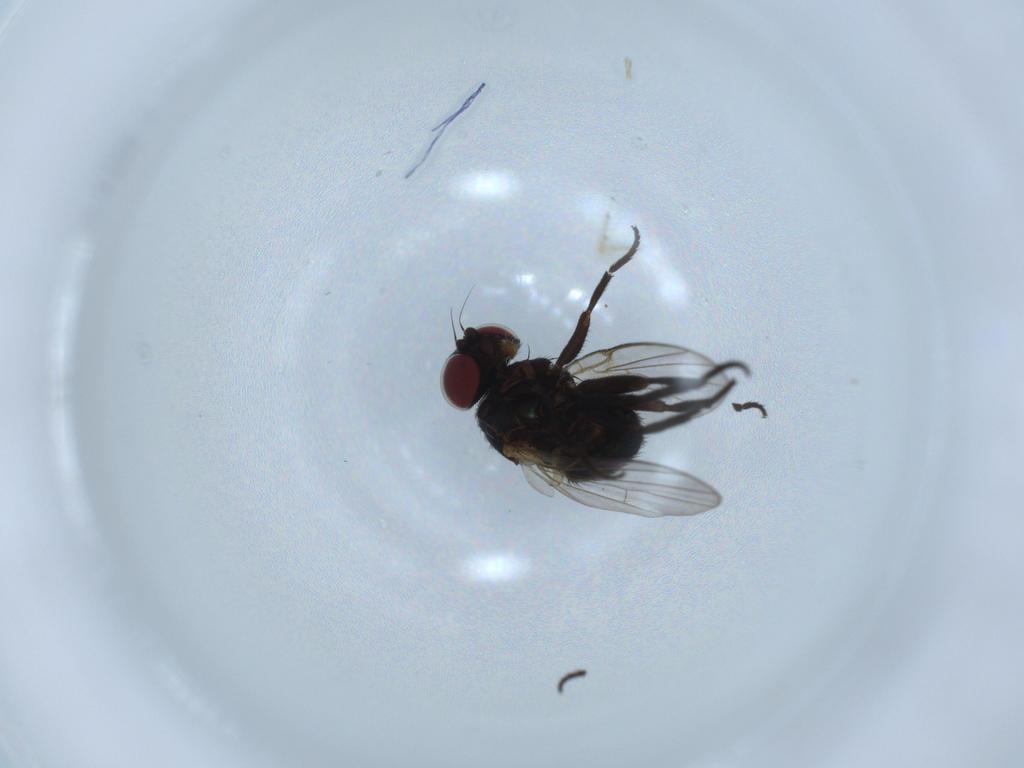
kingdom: Animalia
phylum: Arthropoda
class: Insecta
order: Diptera
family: Agromyzidae
